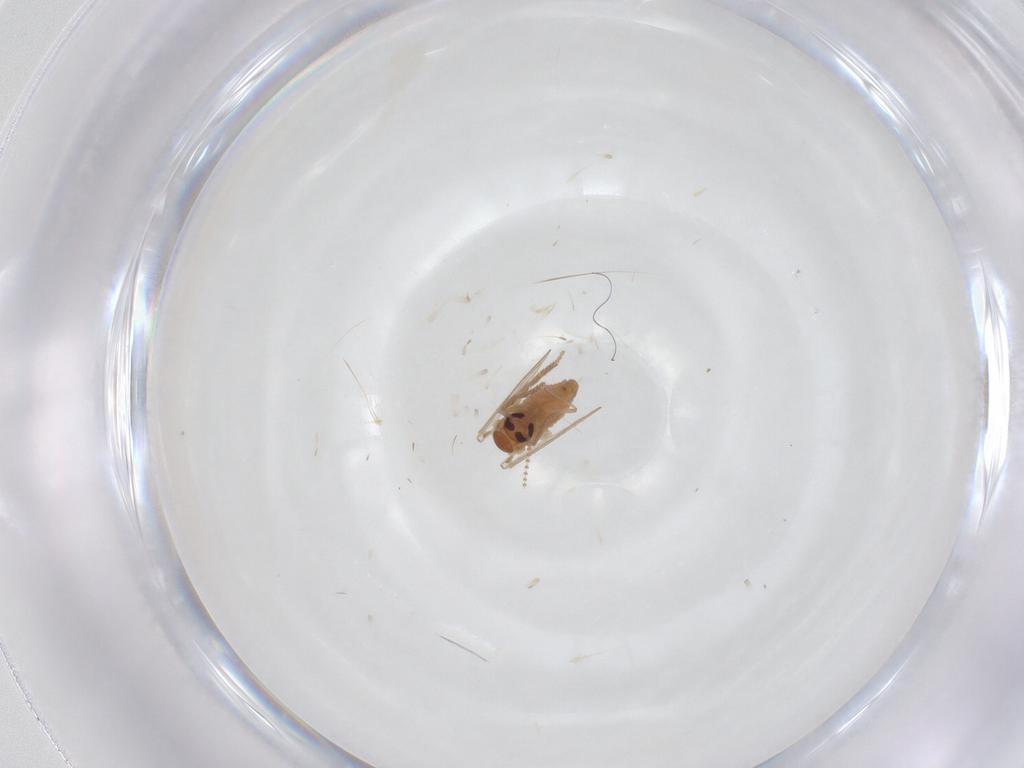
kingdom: Animalia
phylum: Arthropoda
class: Insecta
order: Diptera
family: Psychodidae
